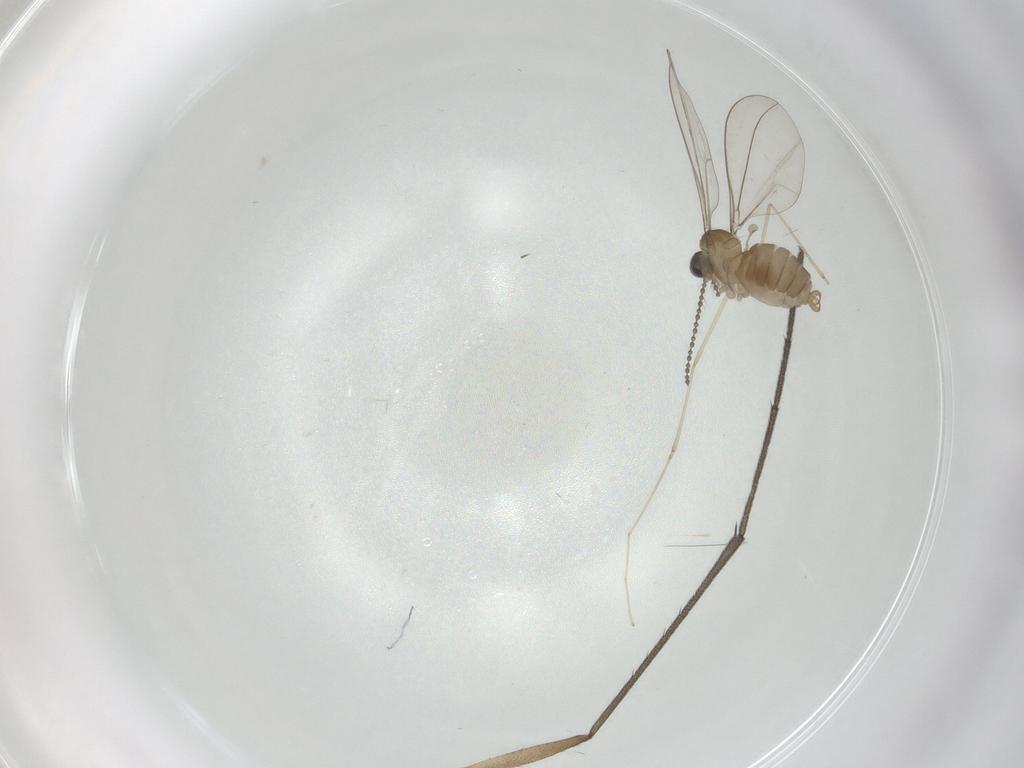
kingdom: Animalia
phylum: Arthropoda
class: Insecta
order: Diptera
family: Cecidomyiidae
